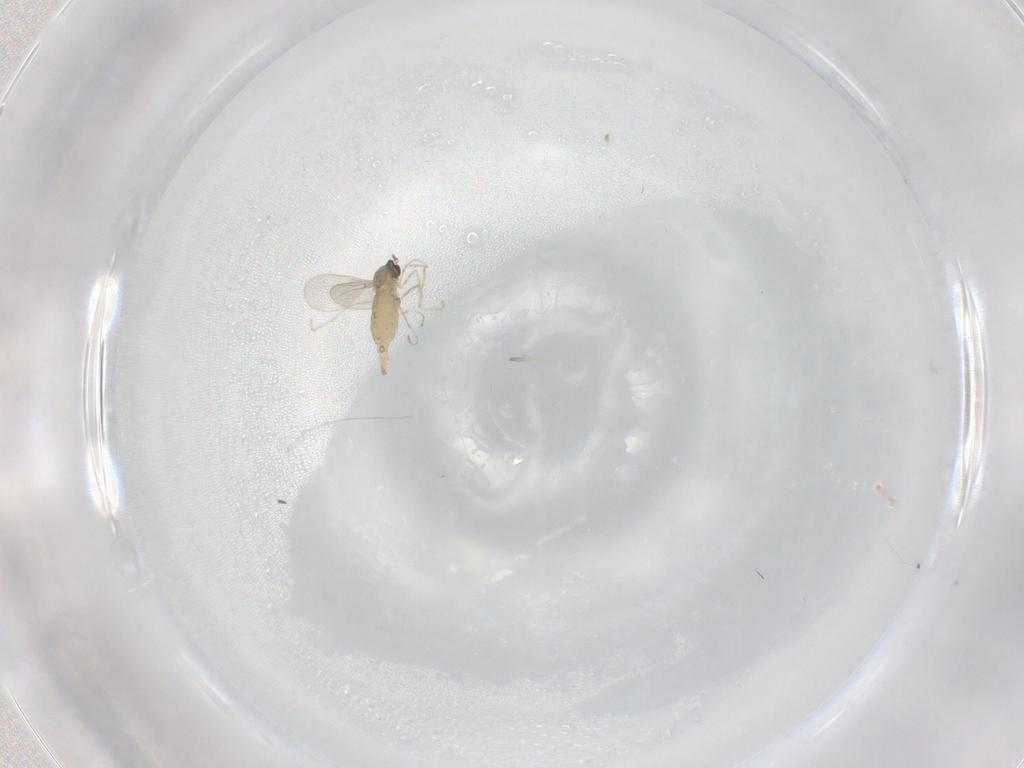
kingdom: Animalia
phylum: Arthropoda
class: Insecta
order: Diptera
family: Cecidomyiidae
